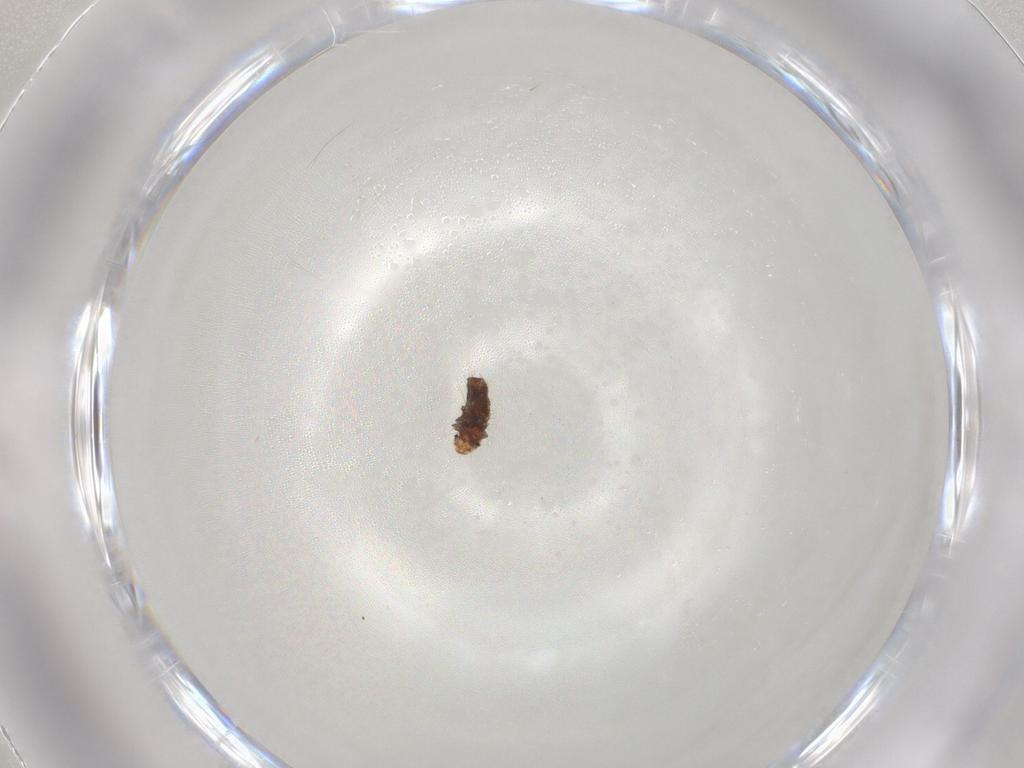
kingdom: Animalia
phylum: Arthropoda
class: Insecta
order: Coleoptera
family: Coccinellidae
